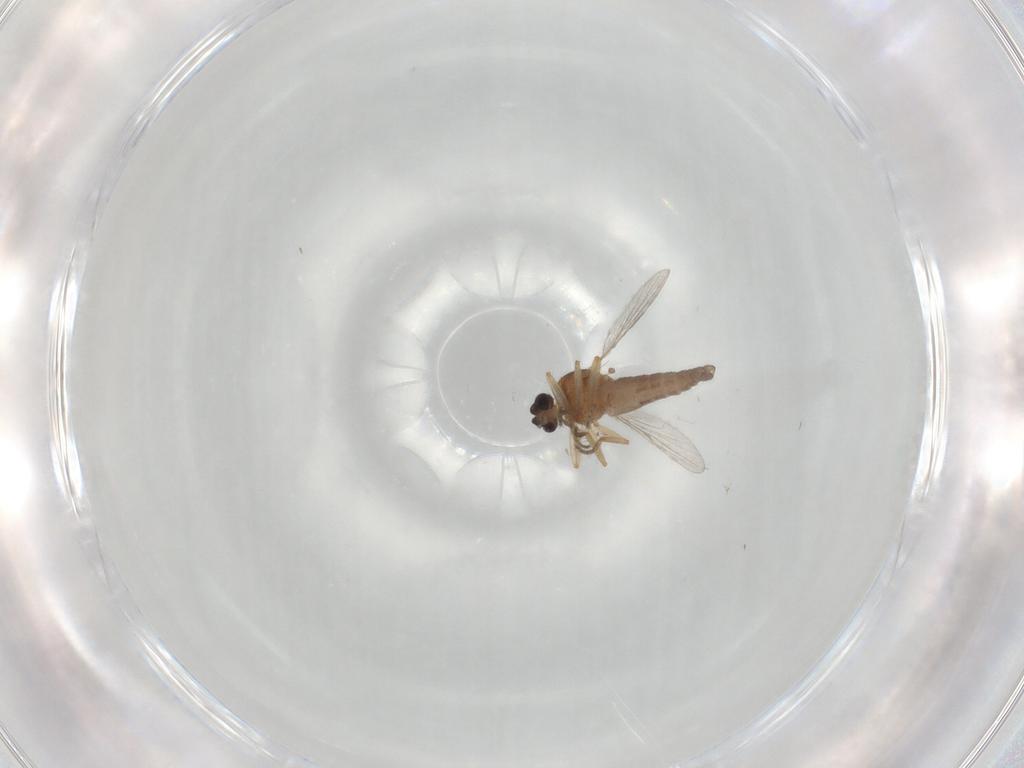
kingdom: Animalia
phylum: Arthropoda
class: Insecta
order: Diptera
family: Ceratopogonidae
